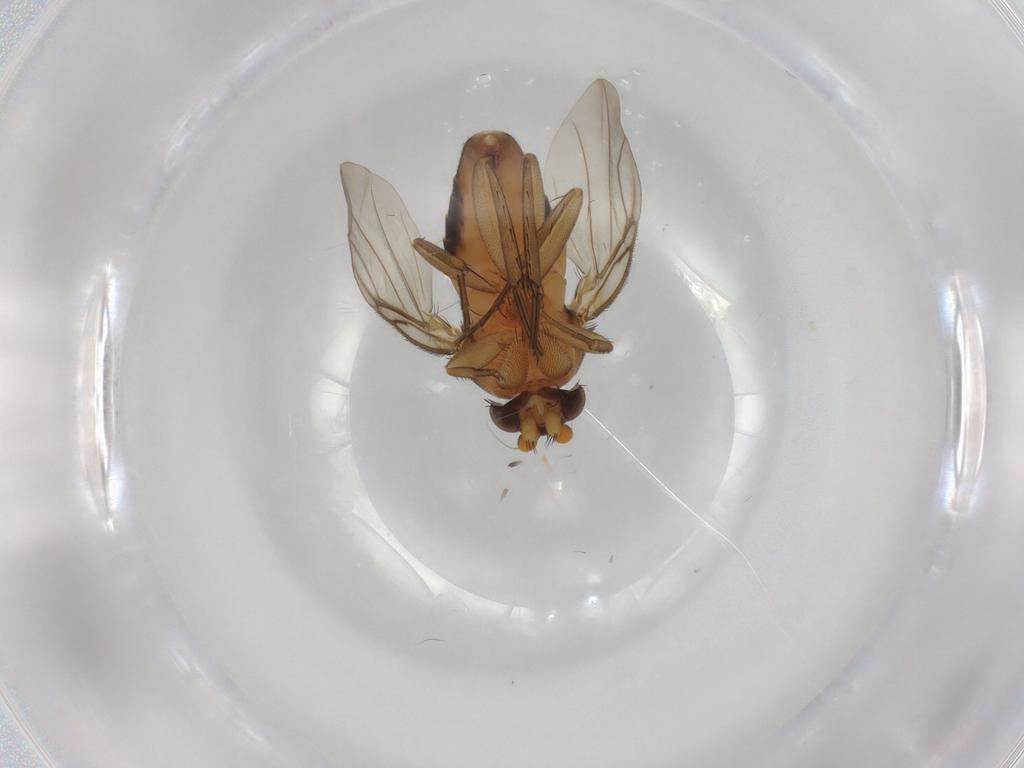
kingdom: Animalia
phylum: Arthropoda
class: Insecta
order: Diptera
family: Phoridae
